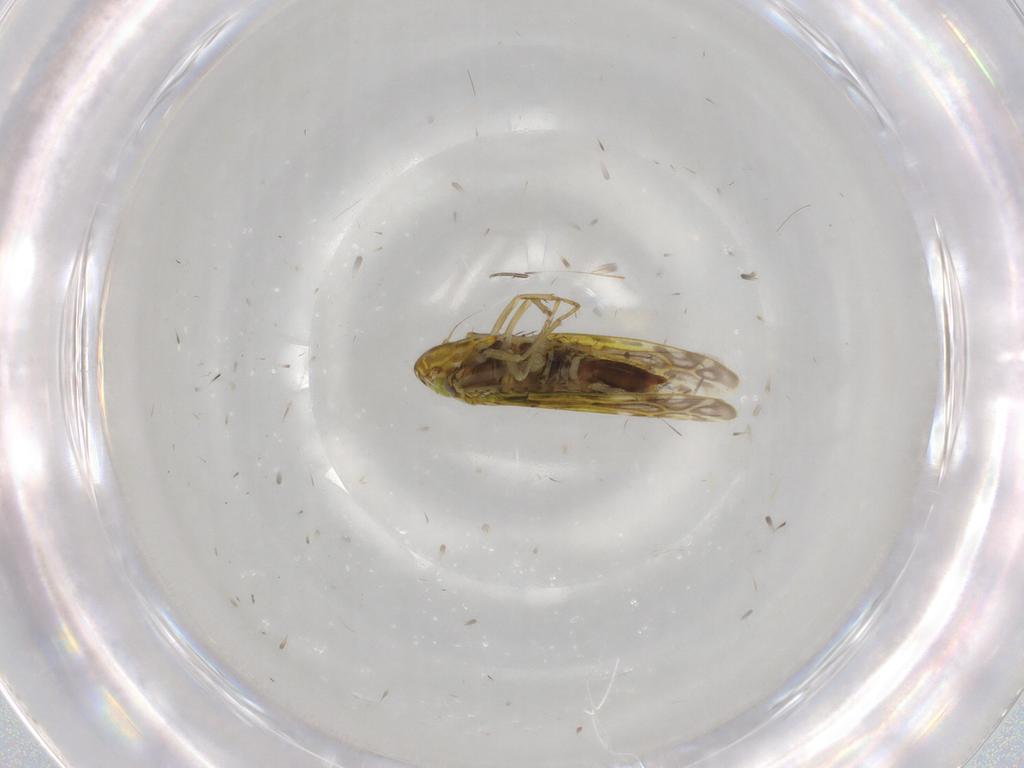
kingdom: Animalia
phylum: Arthropoda
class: Insecta
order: Hemiptera
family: Cicadellidae
